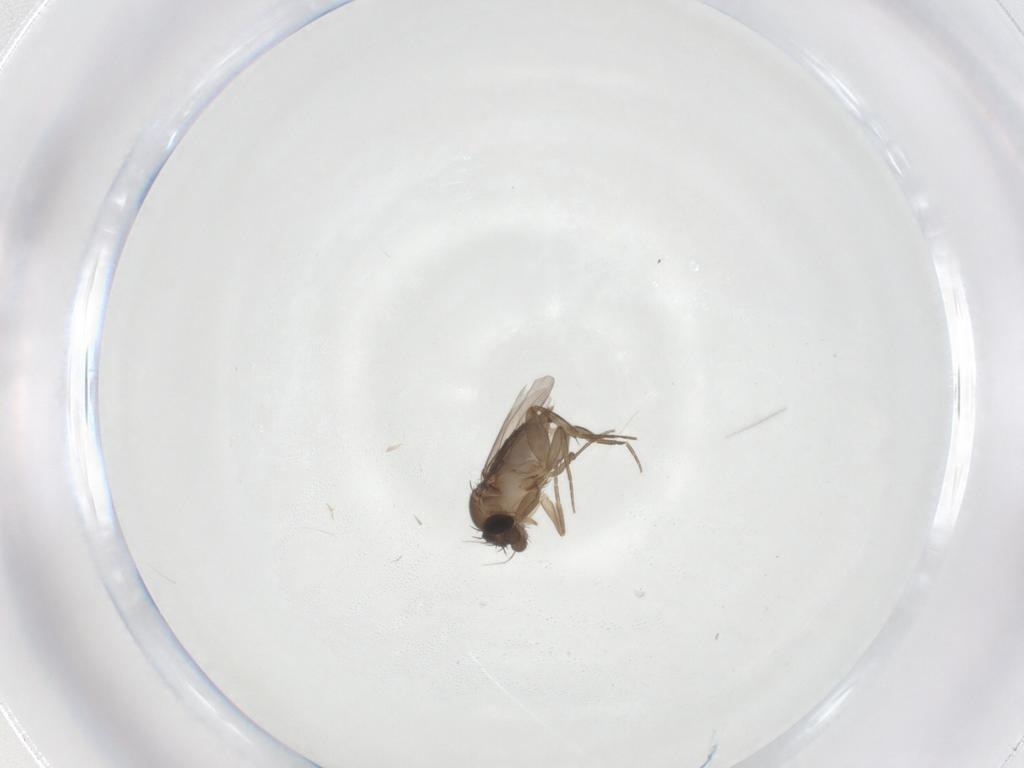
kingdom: Animalia
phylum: Arthropoda
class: Insecta
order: Diptera
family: Phoridae
